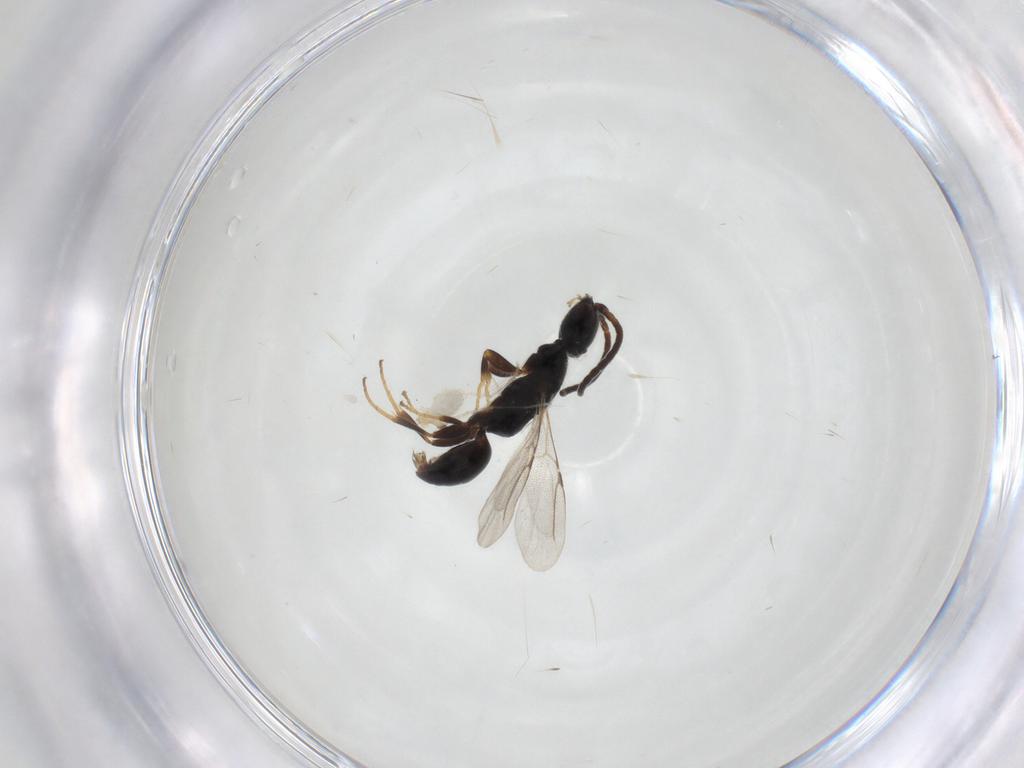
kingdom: Animalia
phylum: Arthropoda
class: Insecta
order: Hymenoptera
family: Bethylidae
